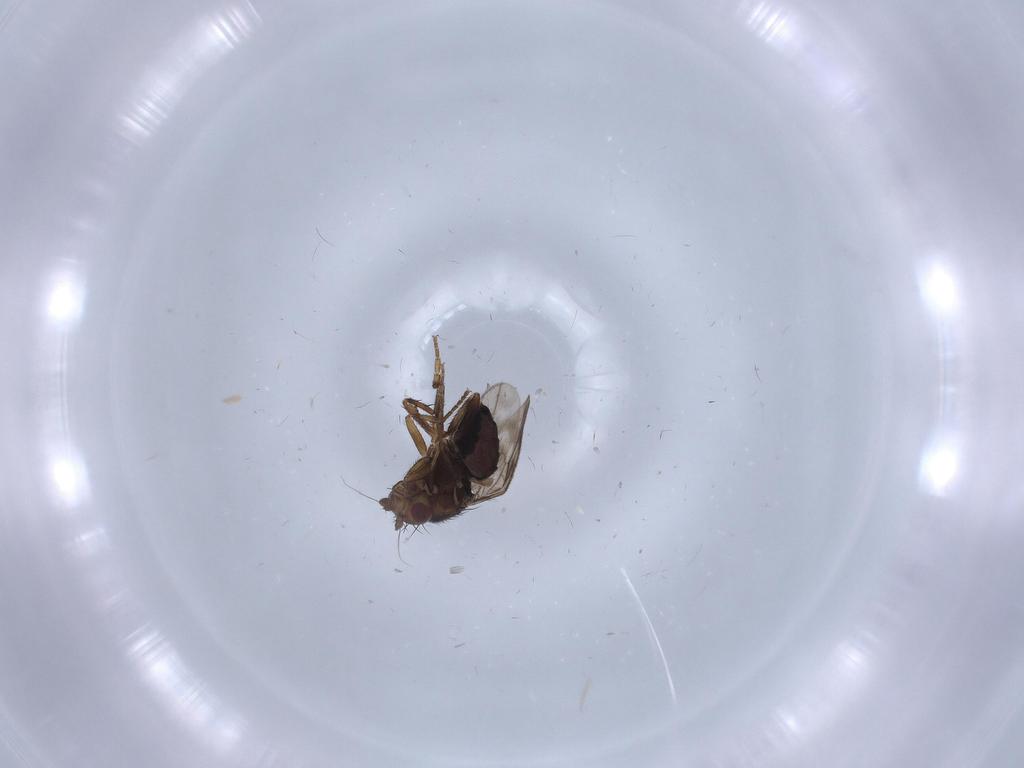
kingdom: Animalia
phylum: Arthropoda
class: Insecta
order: Diptera
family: Sphaeroceridae
